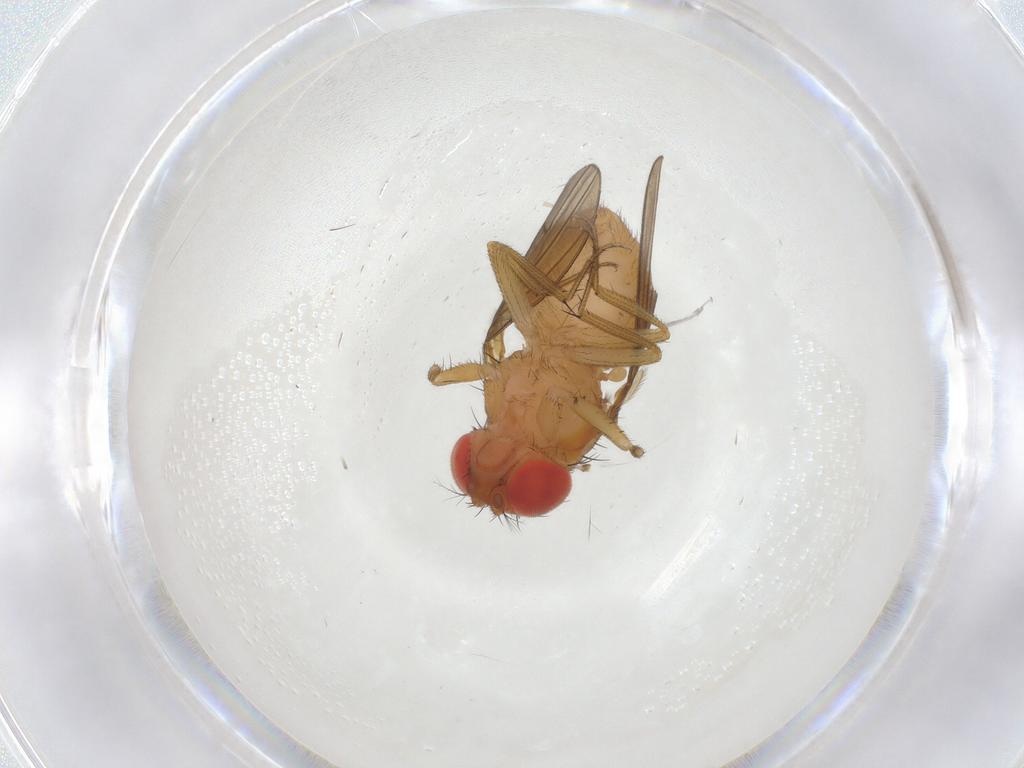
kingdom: Animalia
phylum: Arthropoda
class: Insecta
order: Diptera
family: Drosophilidae
